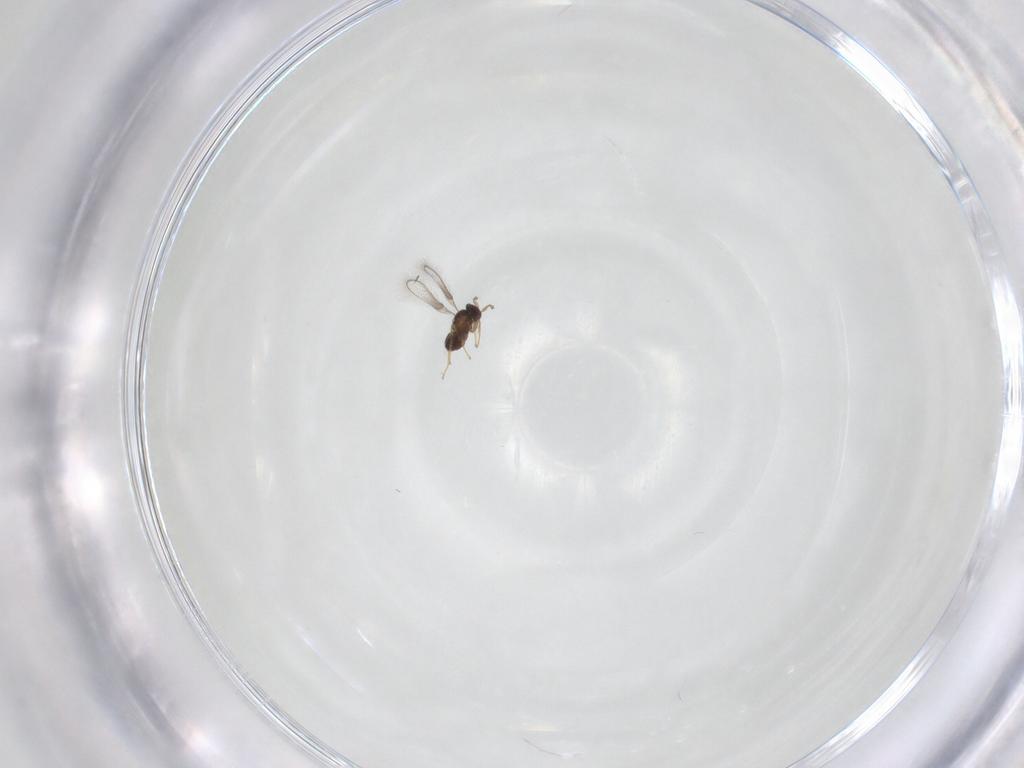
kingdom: Animalia
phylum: Arthropoda
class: Insecta
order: Hymenoptera
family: Mymaridae
